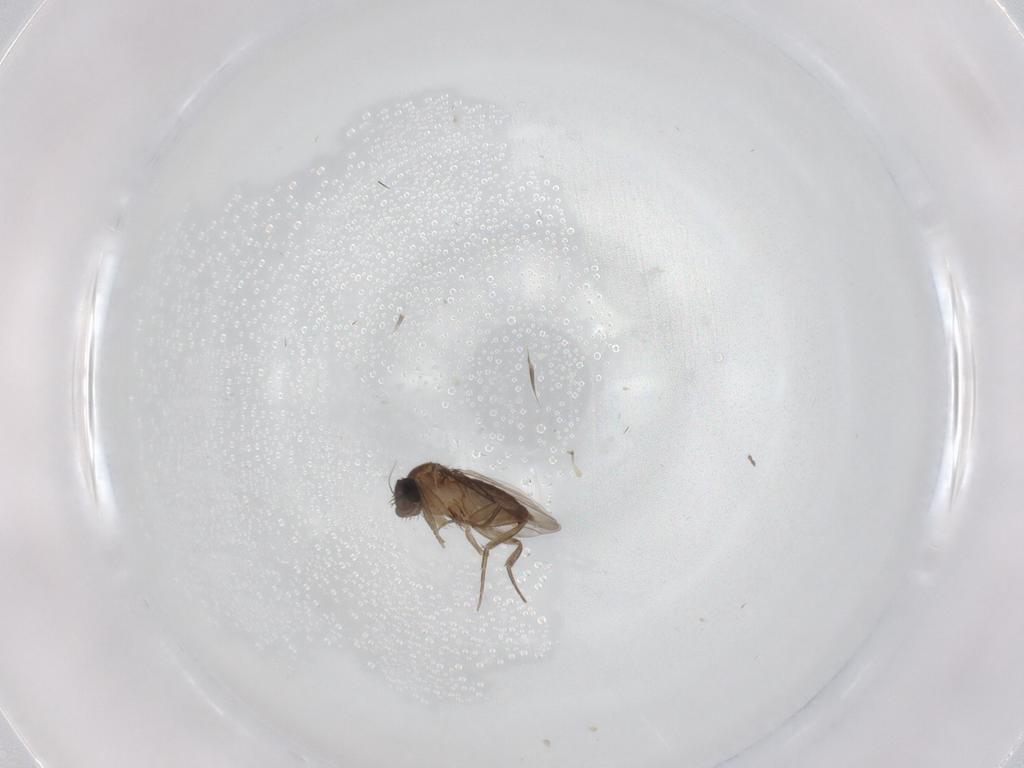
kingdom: Animalia
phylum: Arthropoda
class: Insecta
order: Diptera
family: Phoridae
